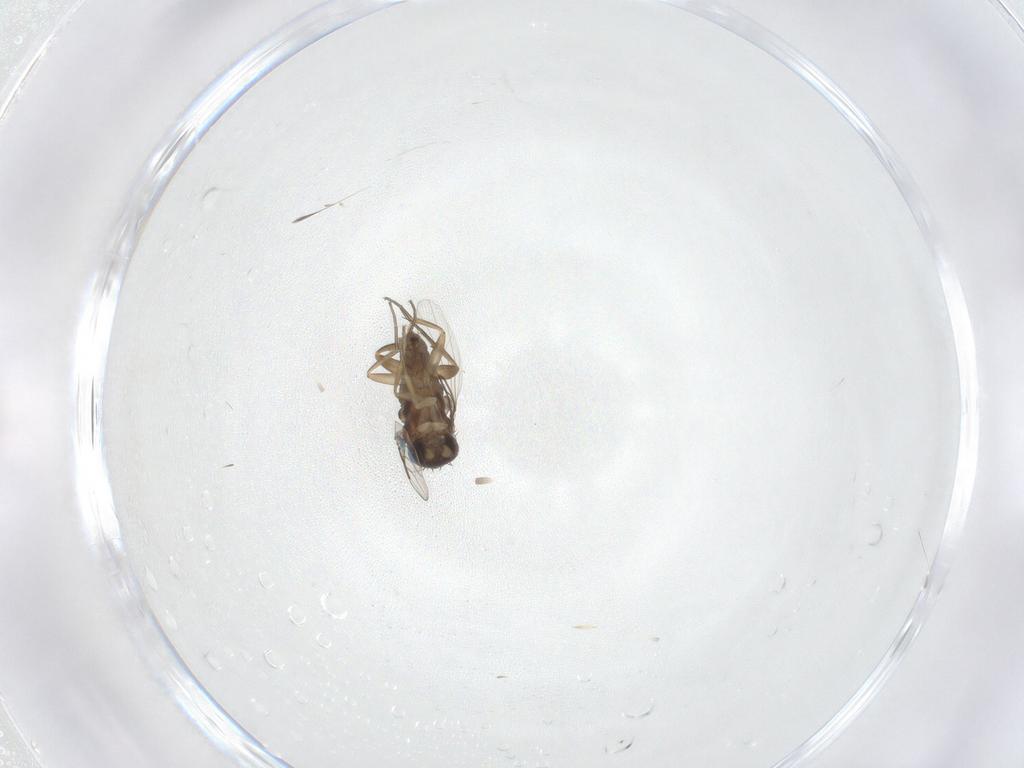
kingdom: Animalia
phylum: Arthropoda
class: Insecta
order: Diptera
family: Phoridae
